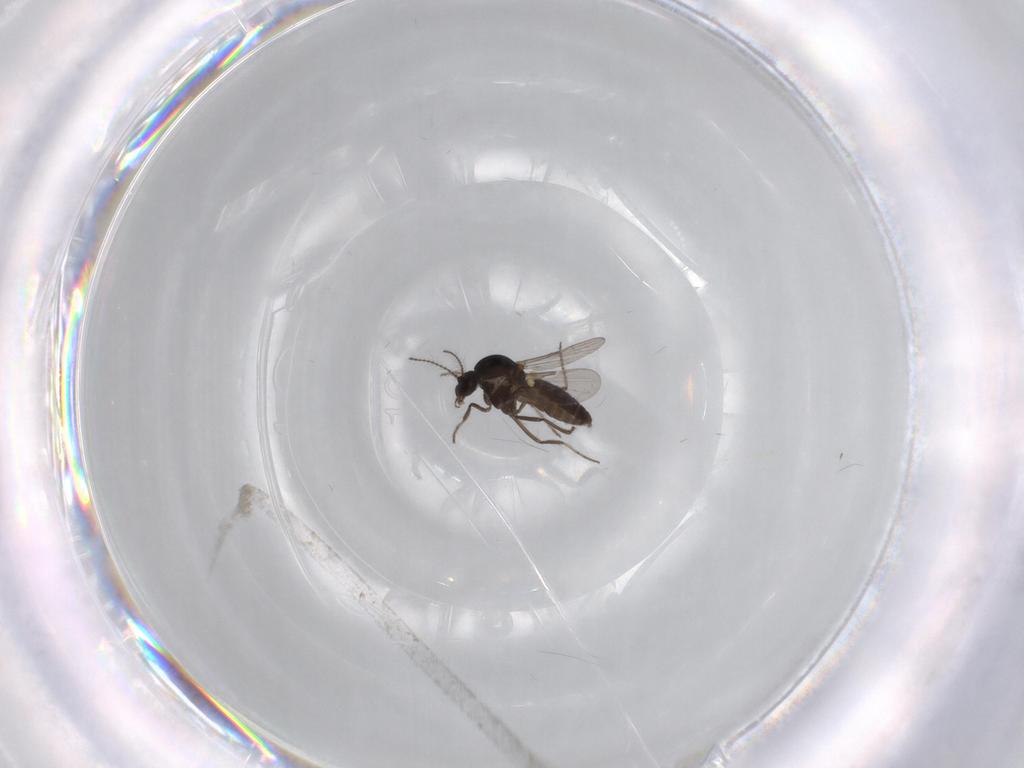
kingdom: Animalia
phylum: Arthropoda
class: Insecta
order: Diptera
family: Ceratopogonidae
